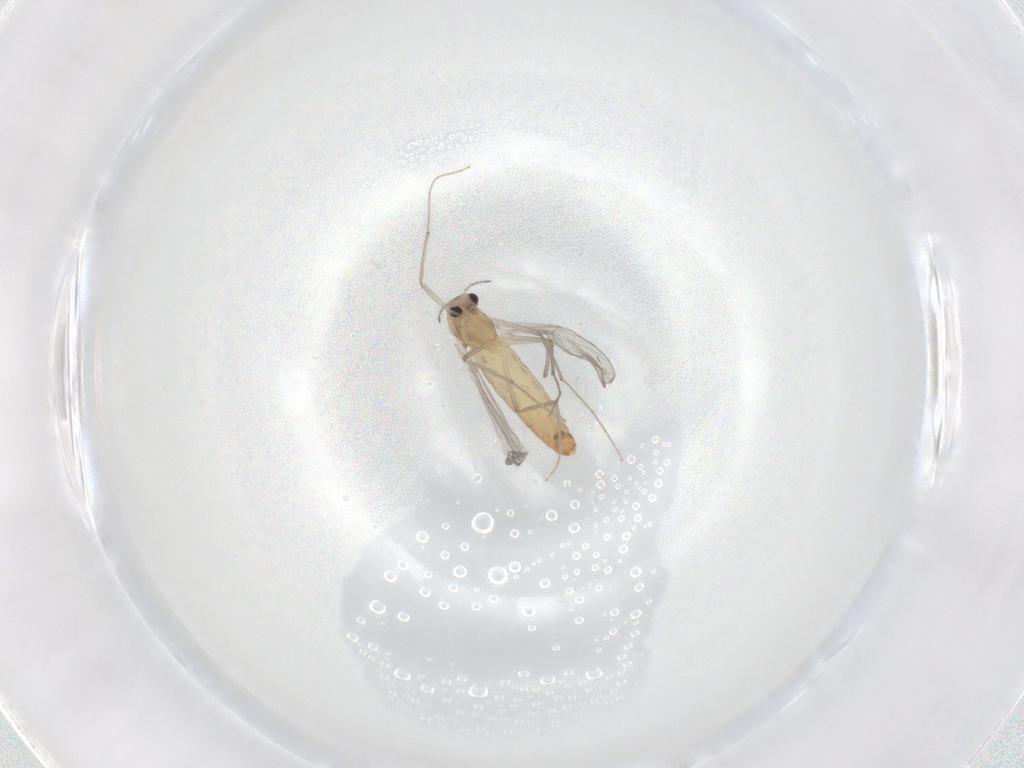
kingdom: Animalia
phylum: Arthropoda
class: Insecta
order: Diptera
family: Chironomidae
